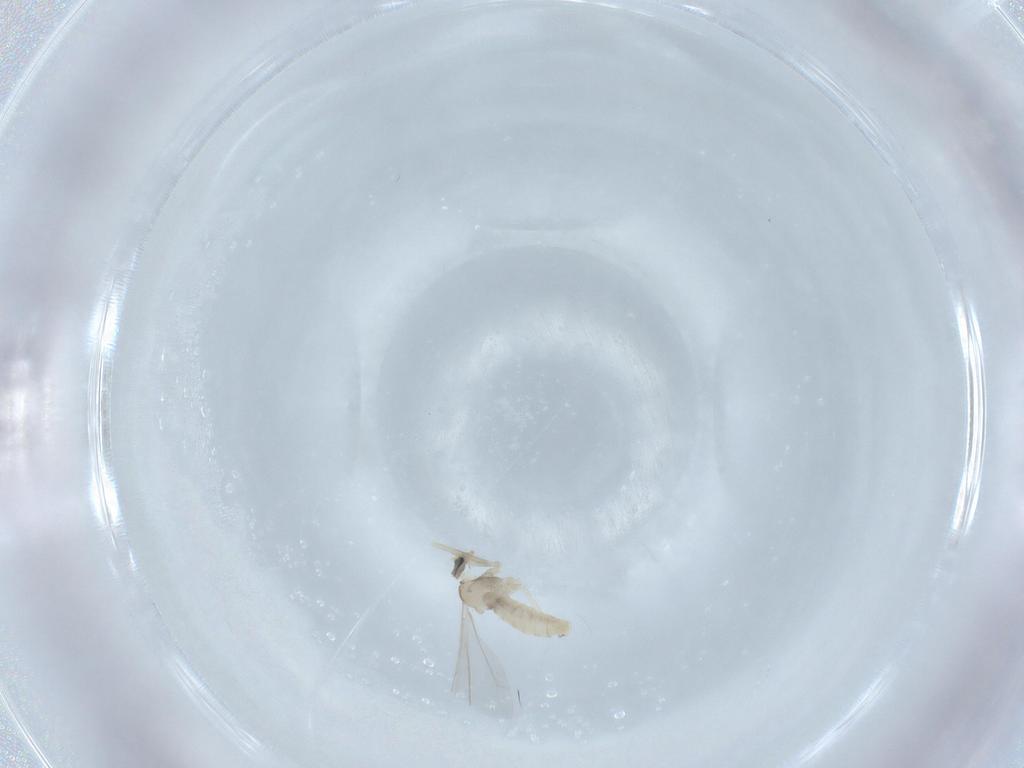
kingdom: Animalia
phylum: Arthropoda
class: Insecta
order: Diptera
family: Cecidomyiidae
